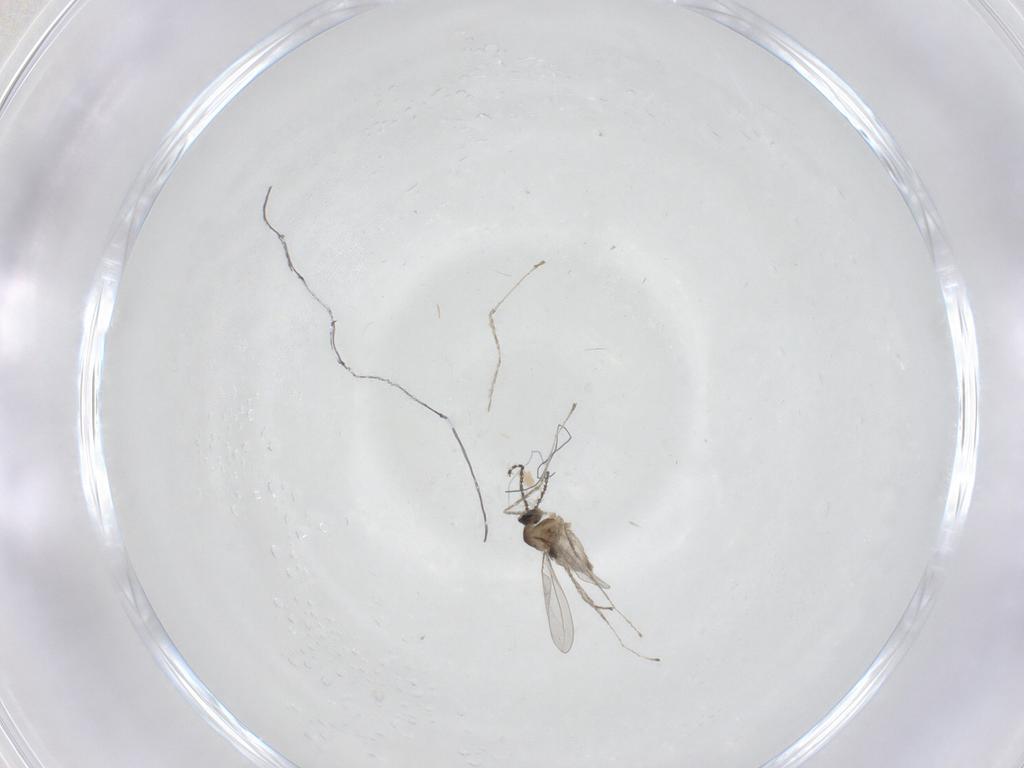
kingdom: Animalia
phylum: Arthropoda
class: Insecta
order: Diptera
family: Cecidomyiidae
